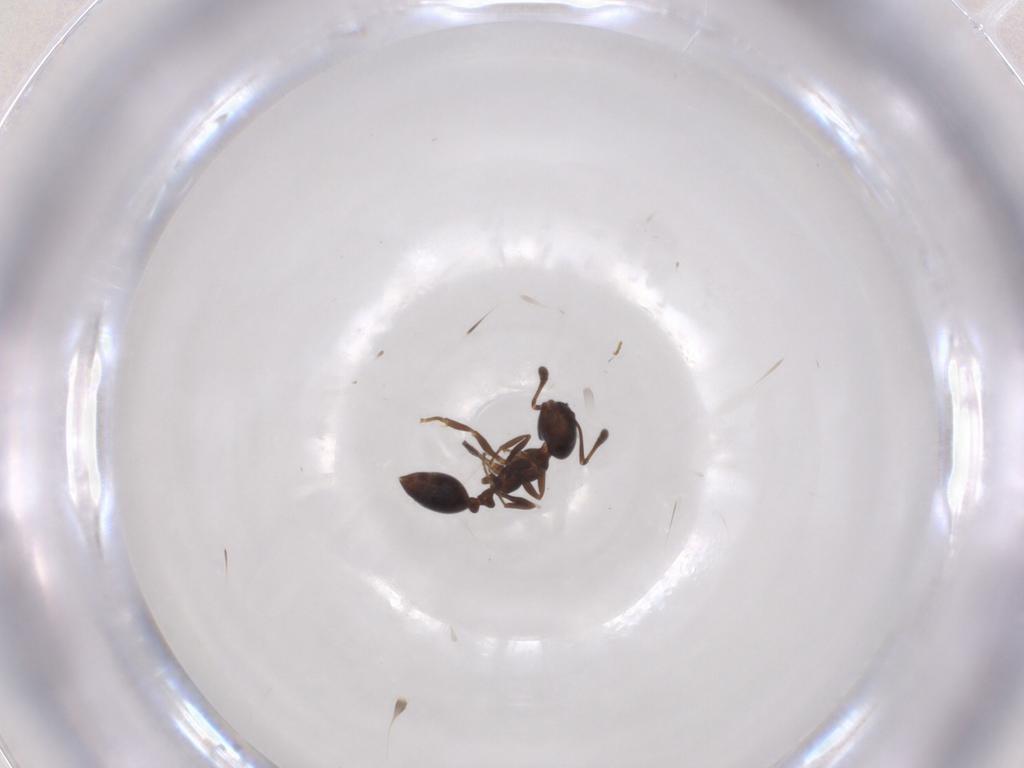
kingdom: Animalia
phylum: Arthropoda
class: Insecta
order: Hymenoptera
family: Formicidae
